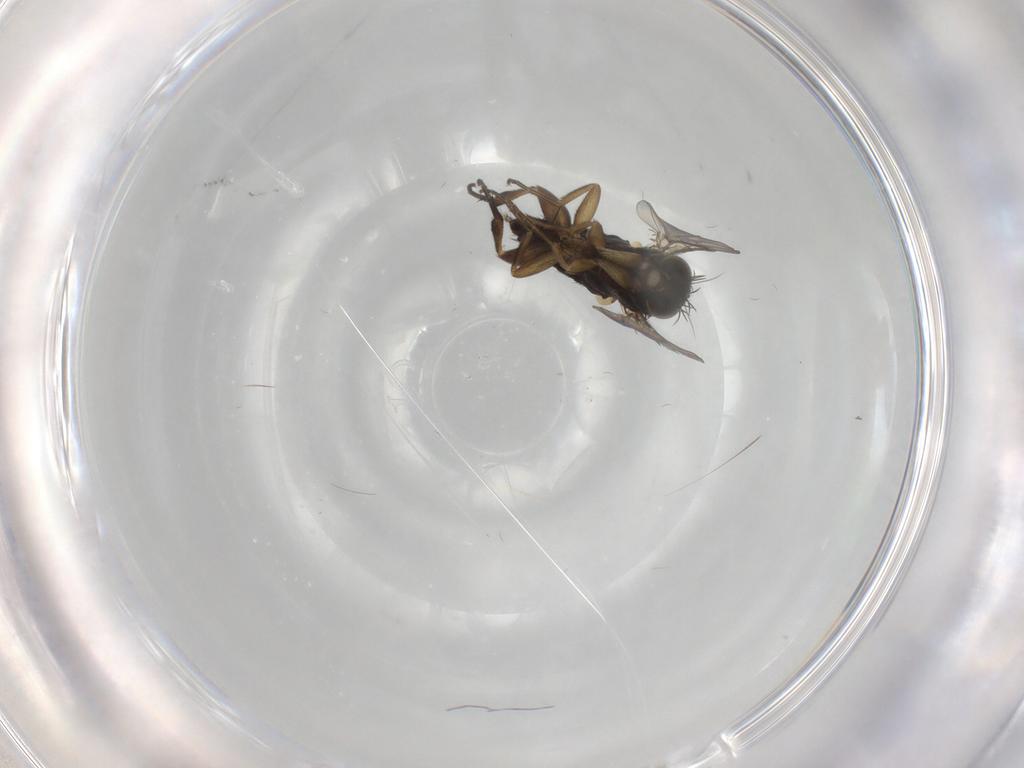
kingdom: Animalia
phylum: Arthropoda
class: Insecta
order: Diptera
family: Phoridae
